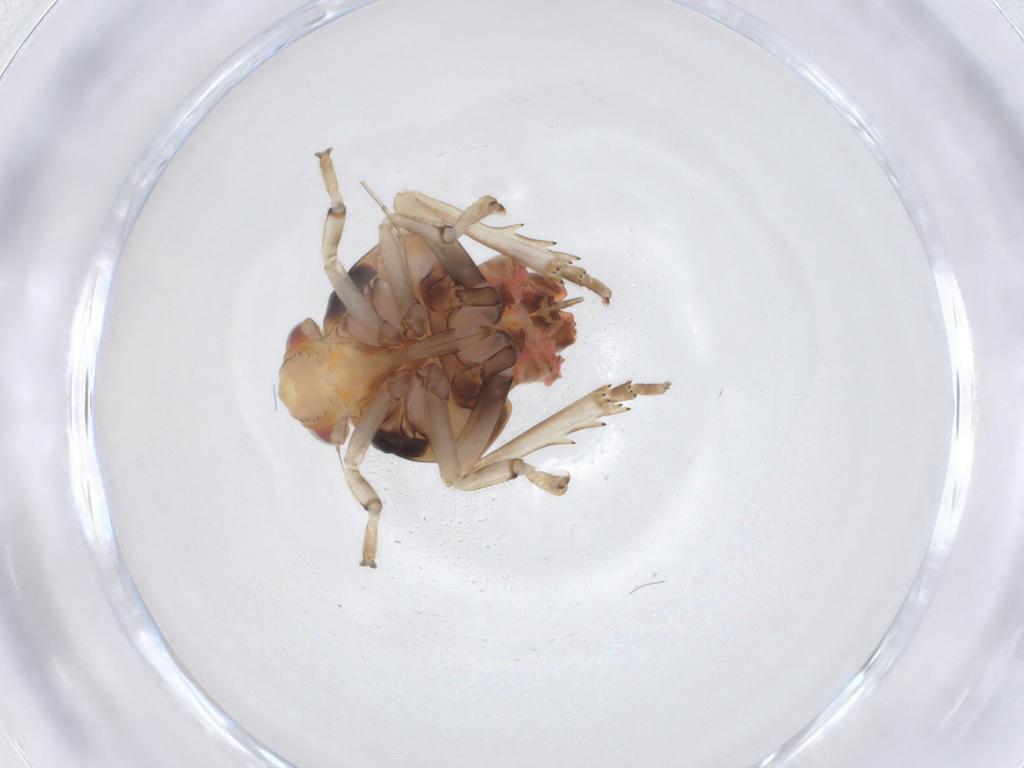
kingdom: Animalia
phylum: Arthropoda
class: Insecta
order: Hemiptera
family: Ricaniidae
